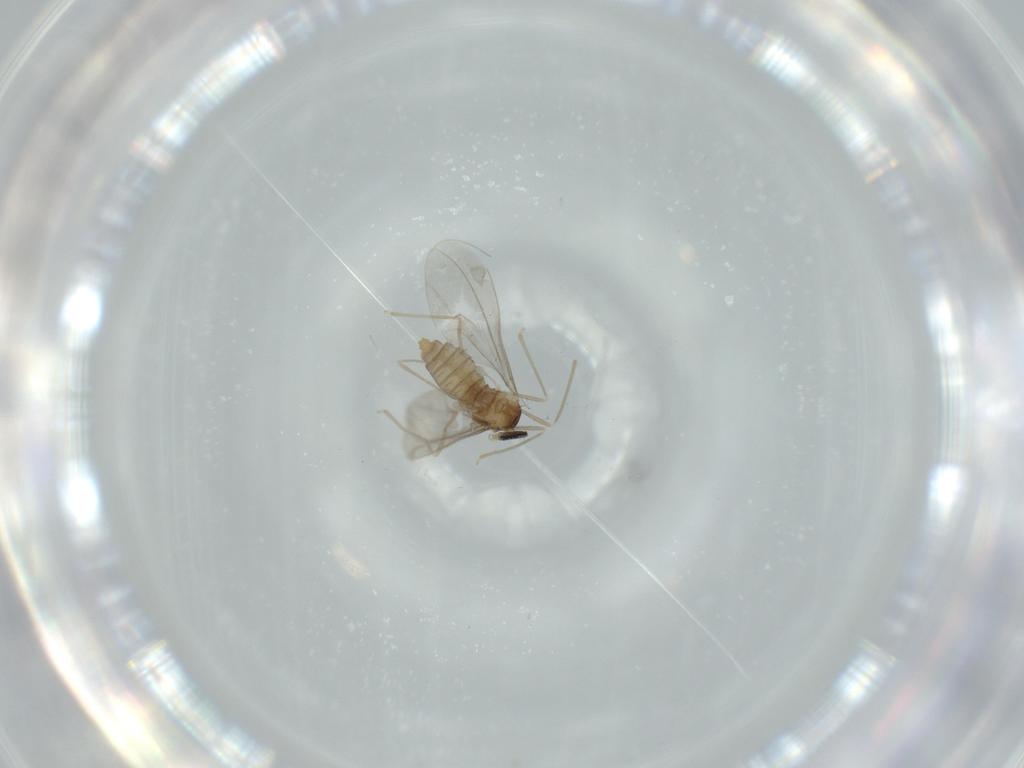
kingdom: Animalia
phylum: Arthropoda
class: Insecta
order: Diptera
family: Cecidomyiidae
